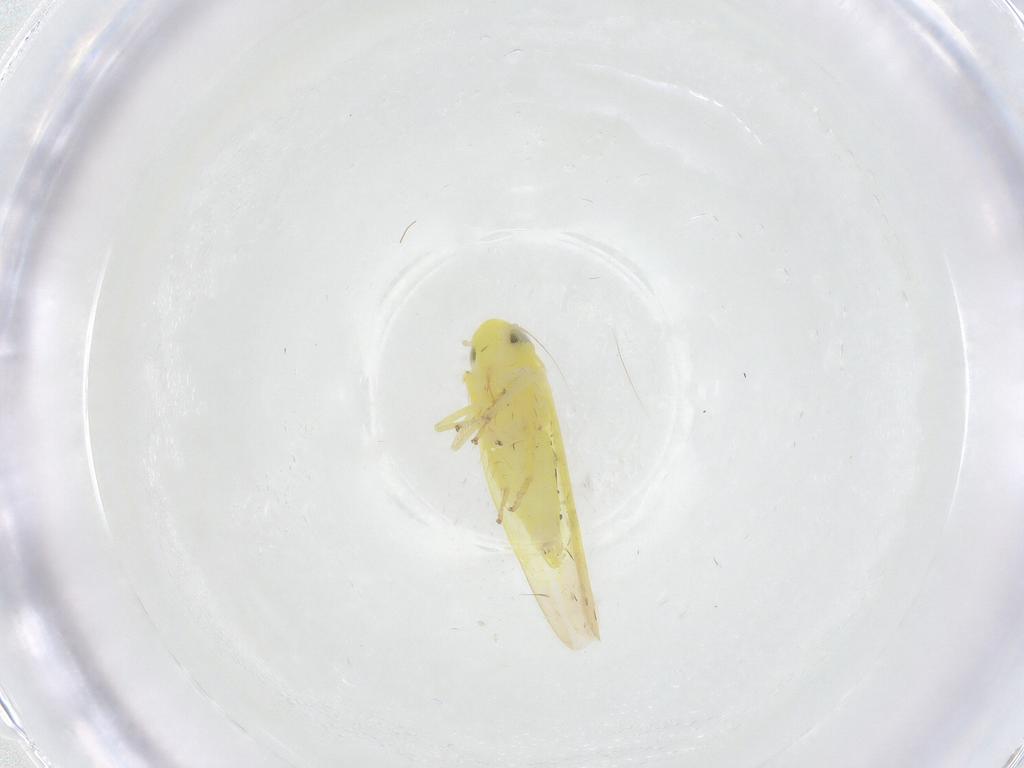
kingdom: Animalia
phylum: Arthropoda
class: Insecta
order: Hemiptera
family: Cicadellidae
